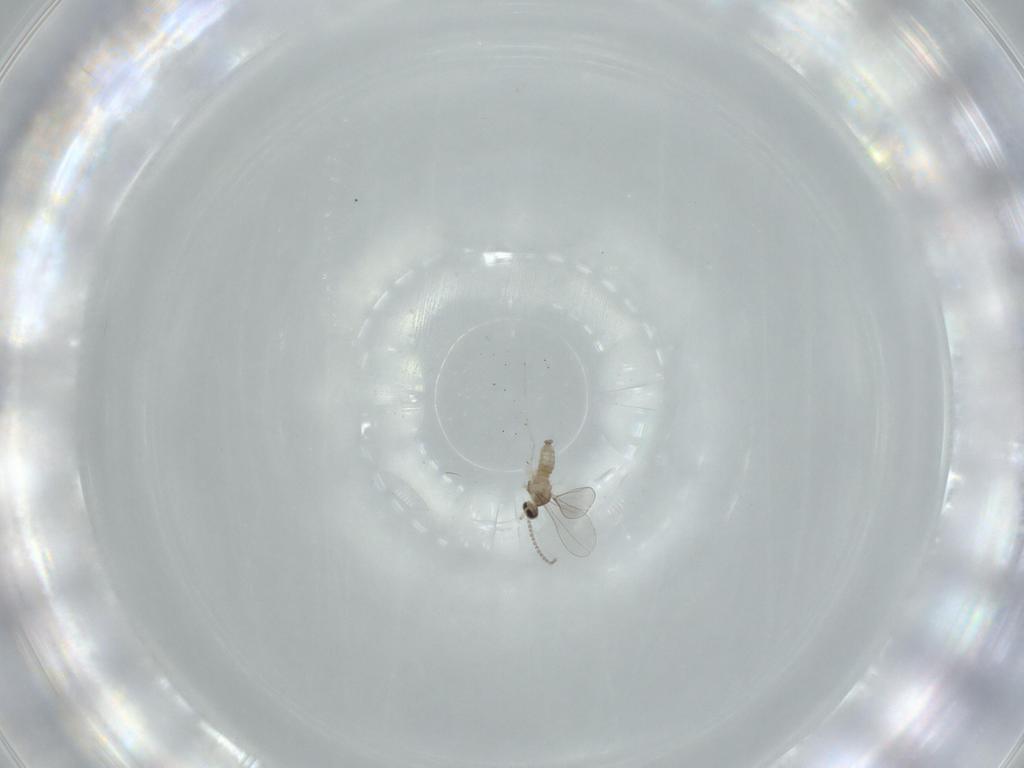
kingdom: Animalia
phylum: Arthropoda
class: Insecta
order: Diptera
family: Cecidomyiidae
